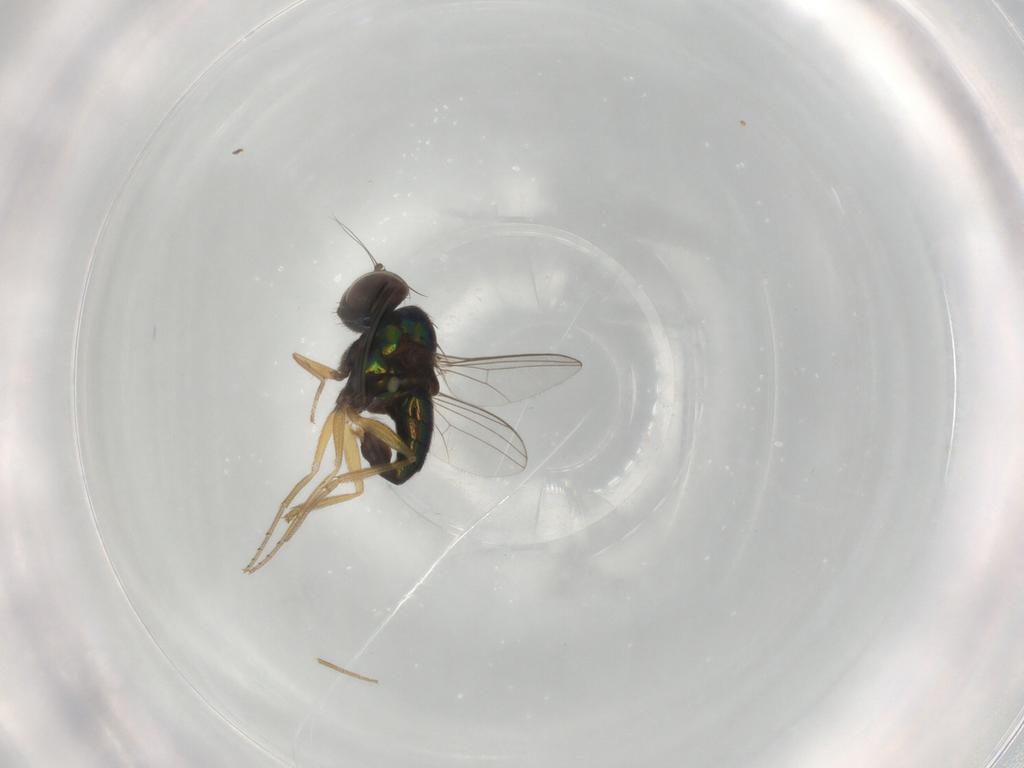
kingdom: Animalia
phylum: Arthropoda
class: Insecta
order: Diptera
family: Dolichopodidae
